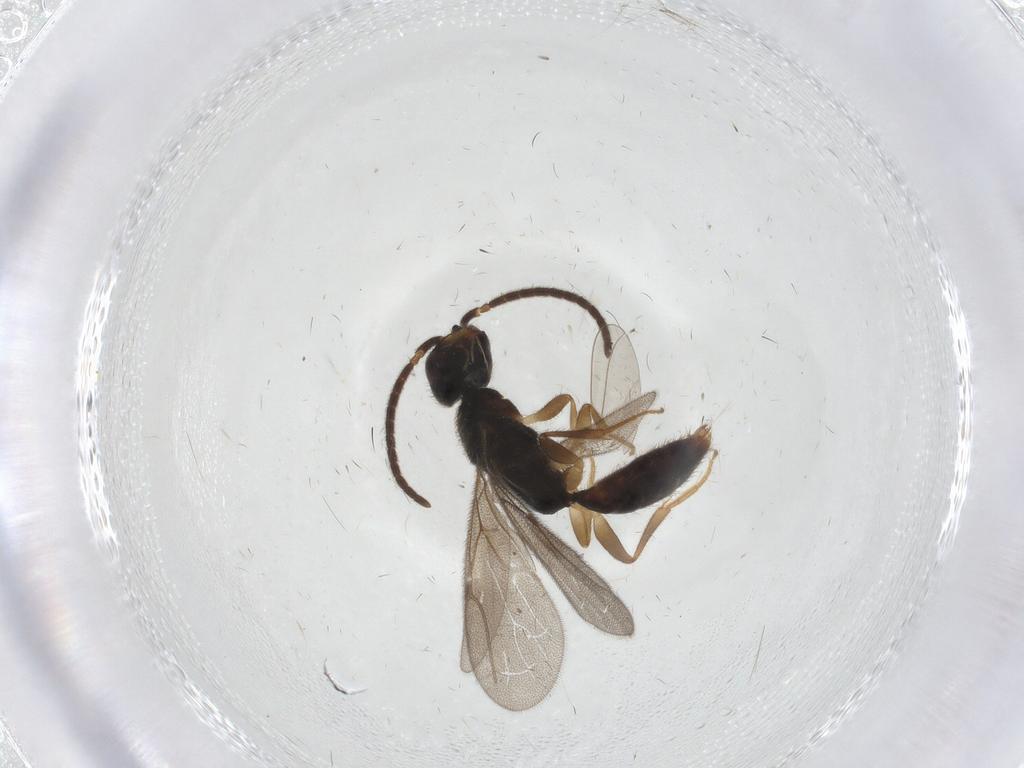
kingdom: Animalia
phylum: Arthropoda
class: Insecta
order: Hymenoptera
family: Bethylidae
